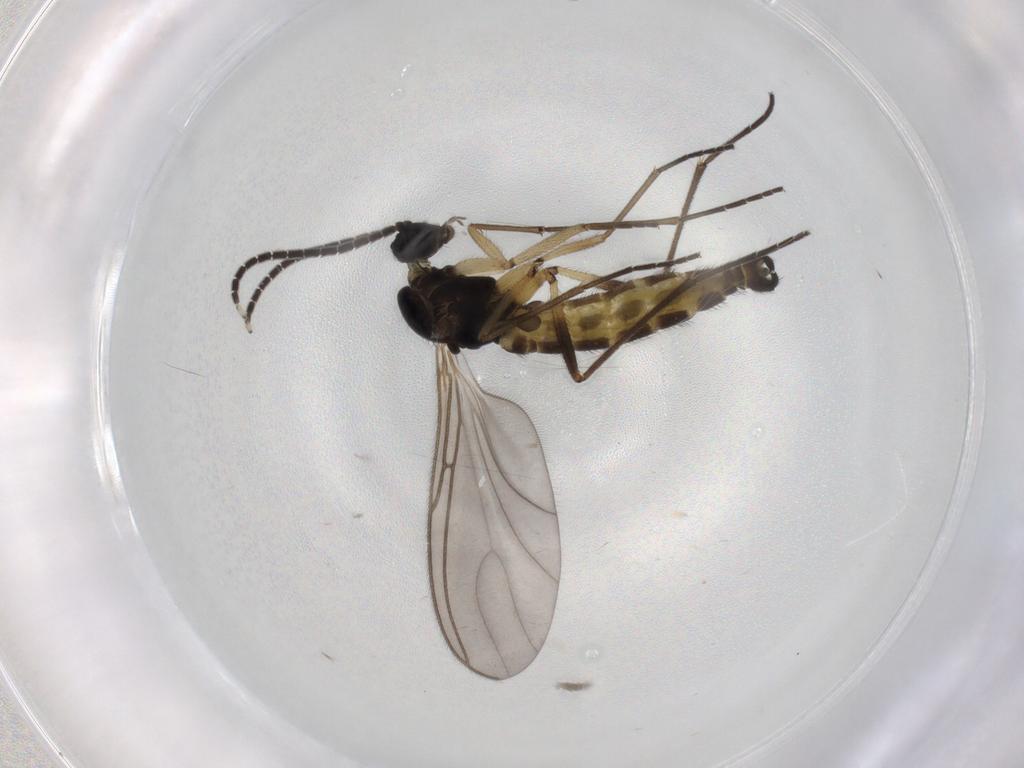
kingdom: Animalia
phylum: Arthropoda
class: Insecta
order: Diptera
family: Sciaridae
